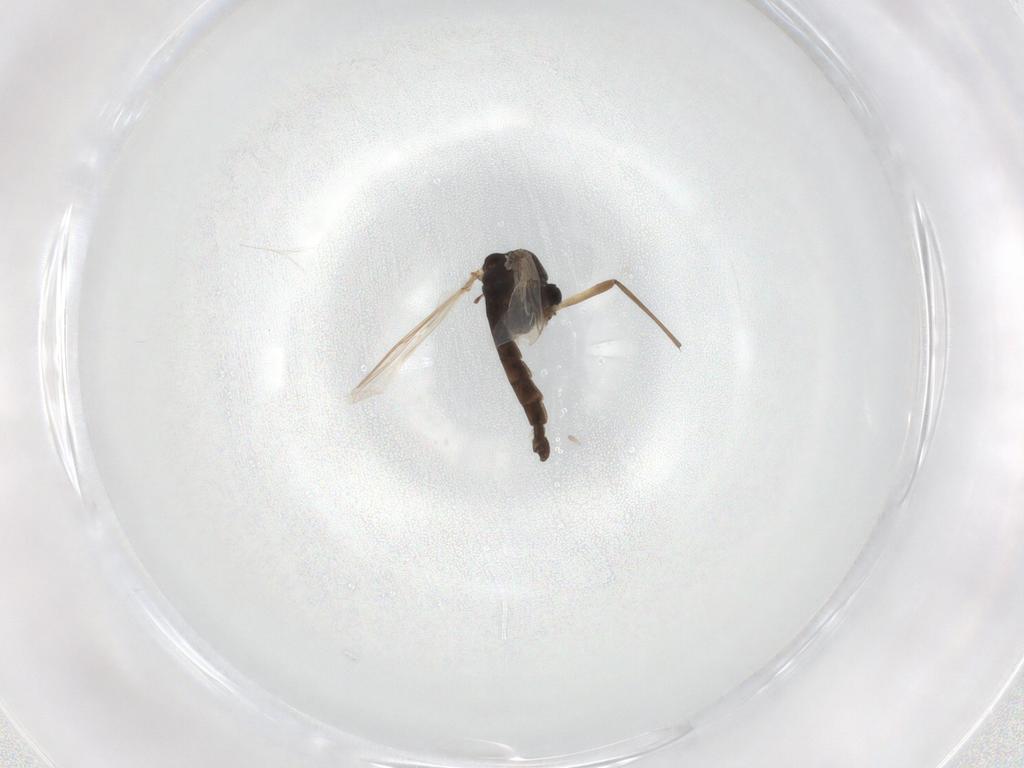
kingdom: Animalia
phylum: Arthropoda
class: Insecta
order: Diptera
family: Chironomidae
